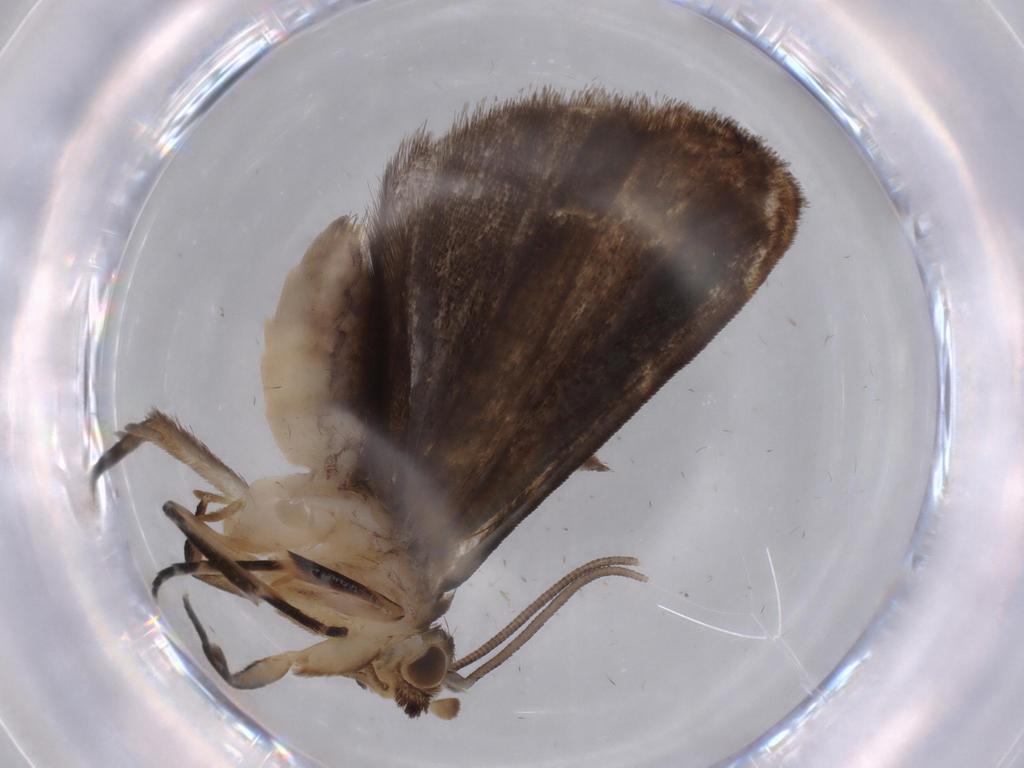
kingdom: Animalia
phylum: Arthropoda
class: Insecta
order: Lepidoptera
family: Dryadaulidae
